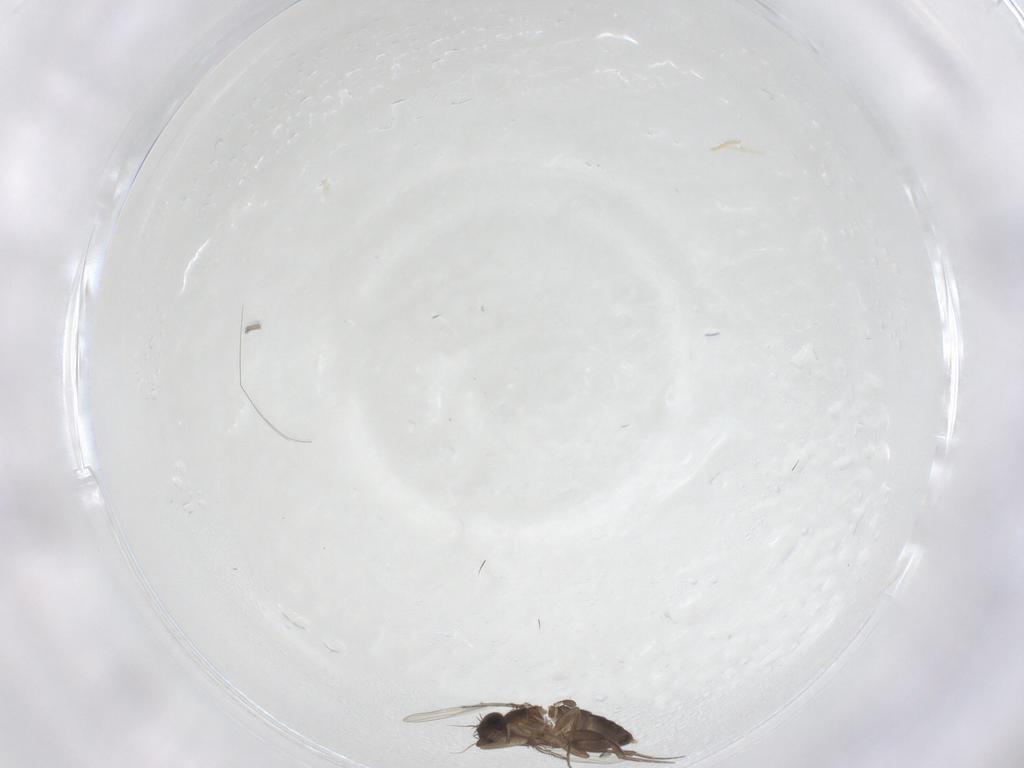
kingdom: Animalia
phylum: Arthropoda
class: Insecta
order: Diptera
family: Phoridae
